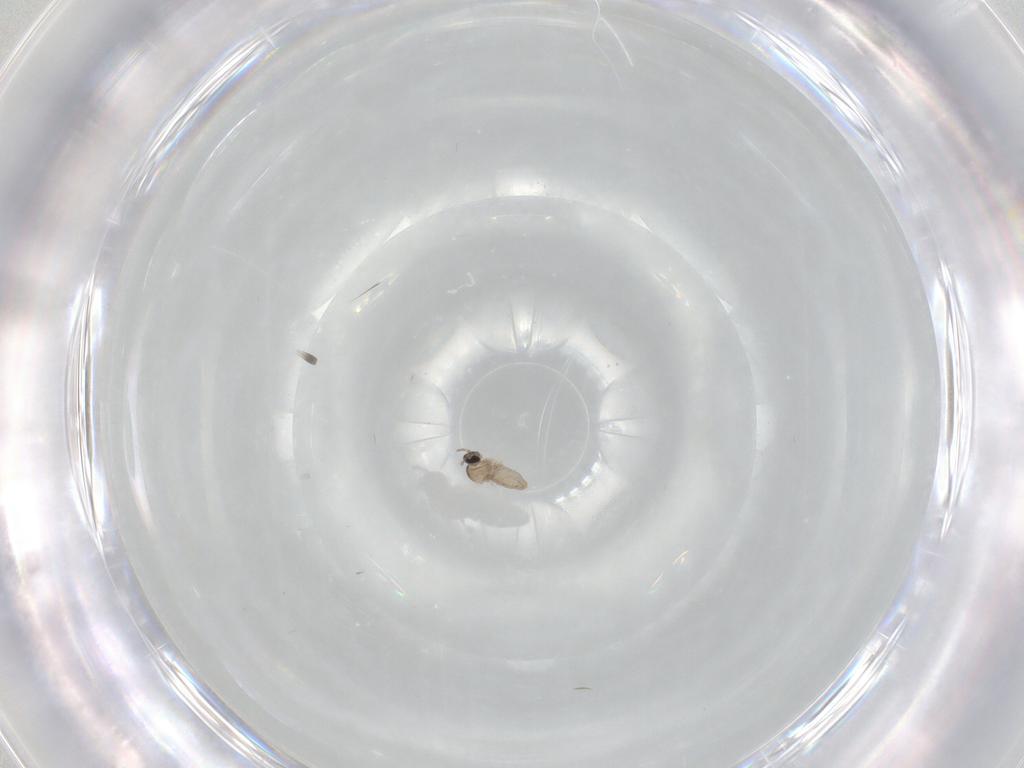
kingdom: Animalia
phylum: Arthropoda
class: Insecta
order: Diptera
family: Cecidomyiidae
